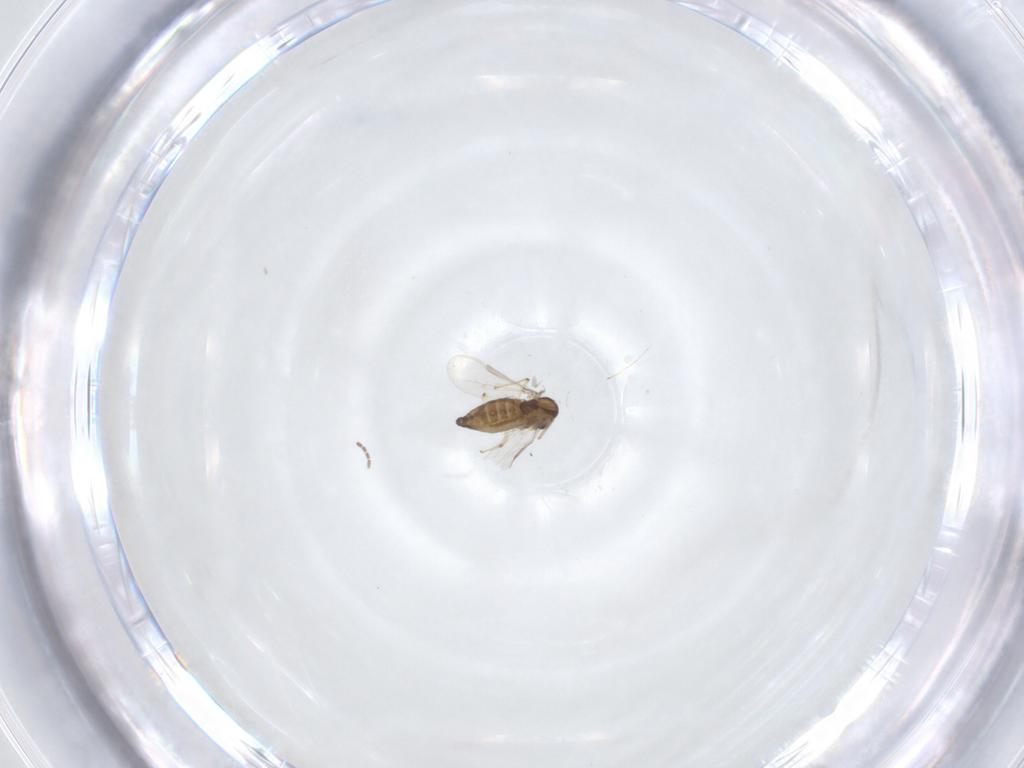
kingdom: Animalia
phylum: Arthropoda
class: Insecta
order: Diptera
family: Chironomidae
